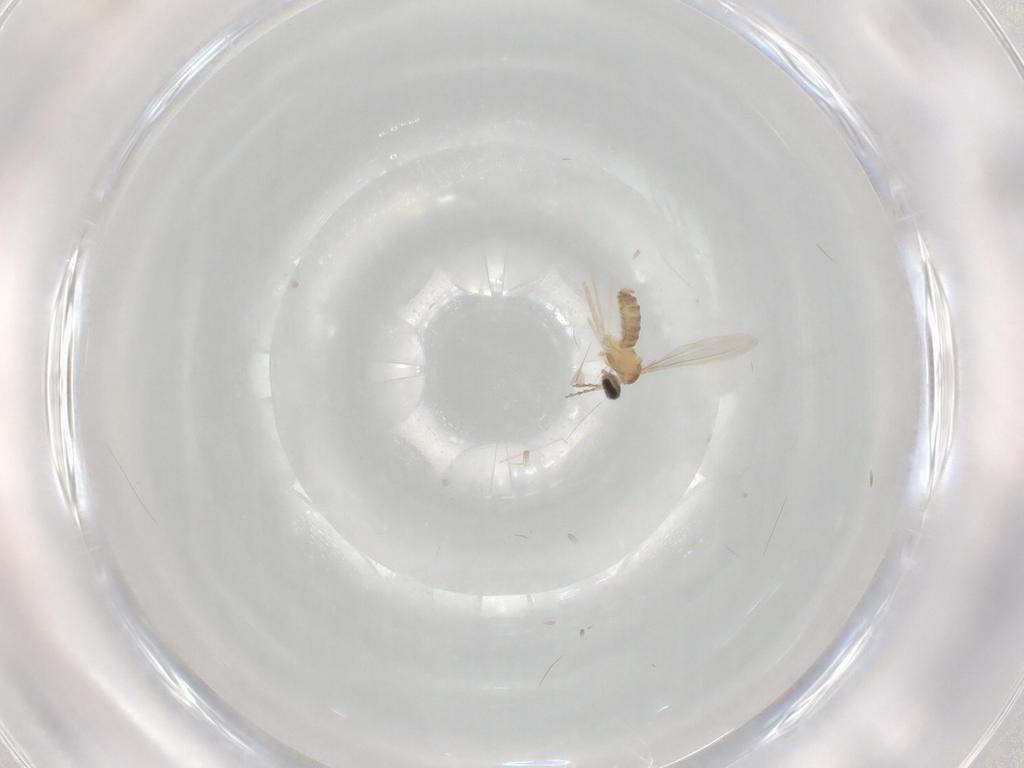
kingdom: Animalia
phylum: Arthropoda
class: Insecta
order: Diptera
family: Cecidomyiidae
